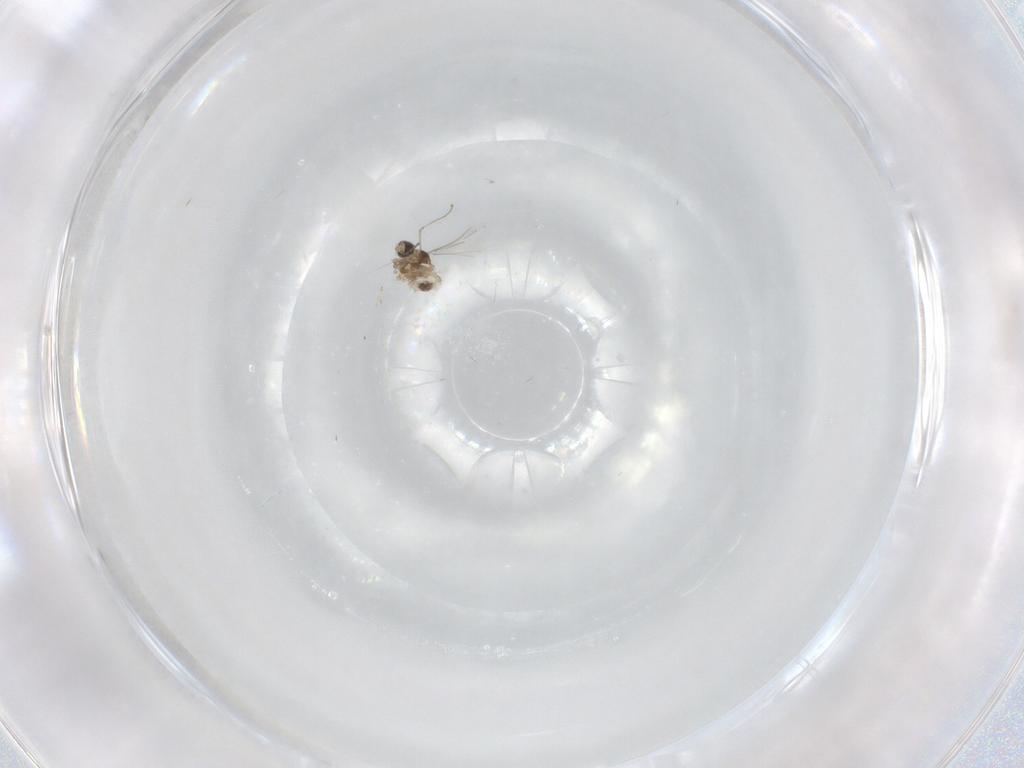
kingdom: Animalia
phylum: Arthropoda
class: Insecta
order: Diptera
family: Cecidomyiidae
